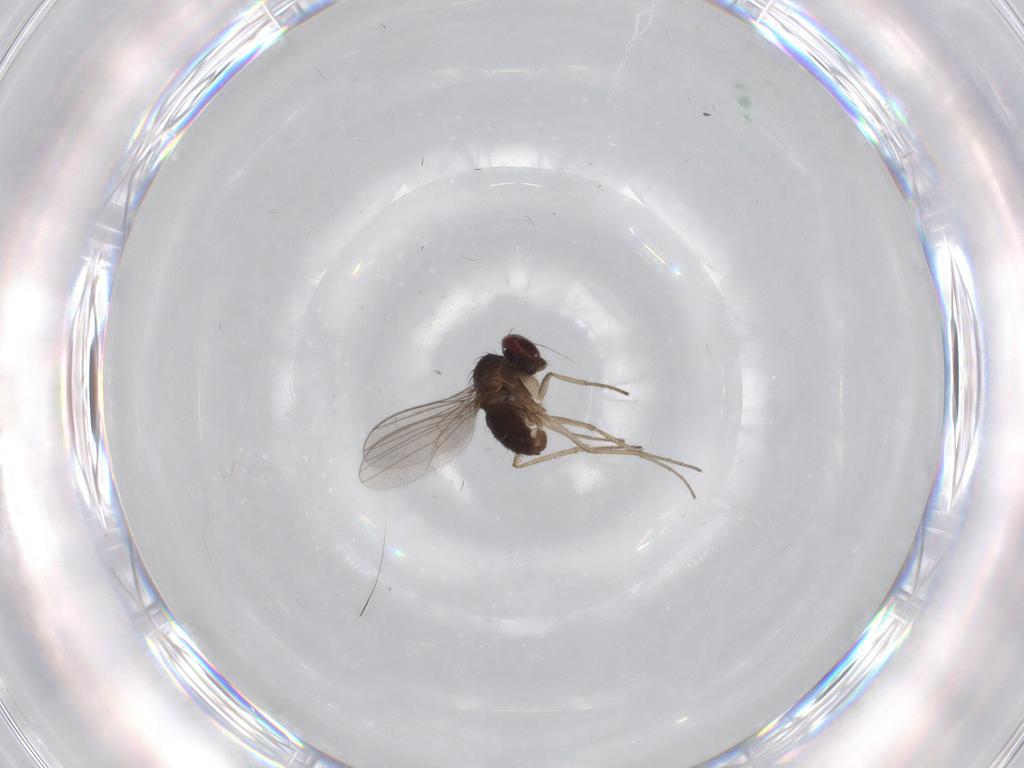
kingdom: Animalia
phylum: Arthropoda
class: Insecta
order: Diptera
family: Dolichopodidae
